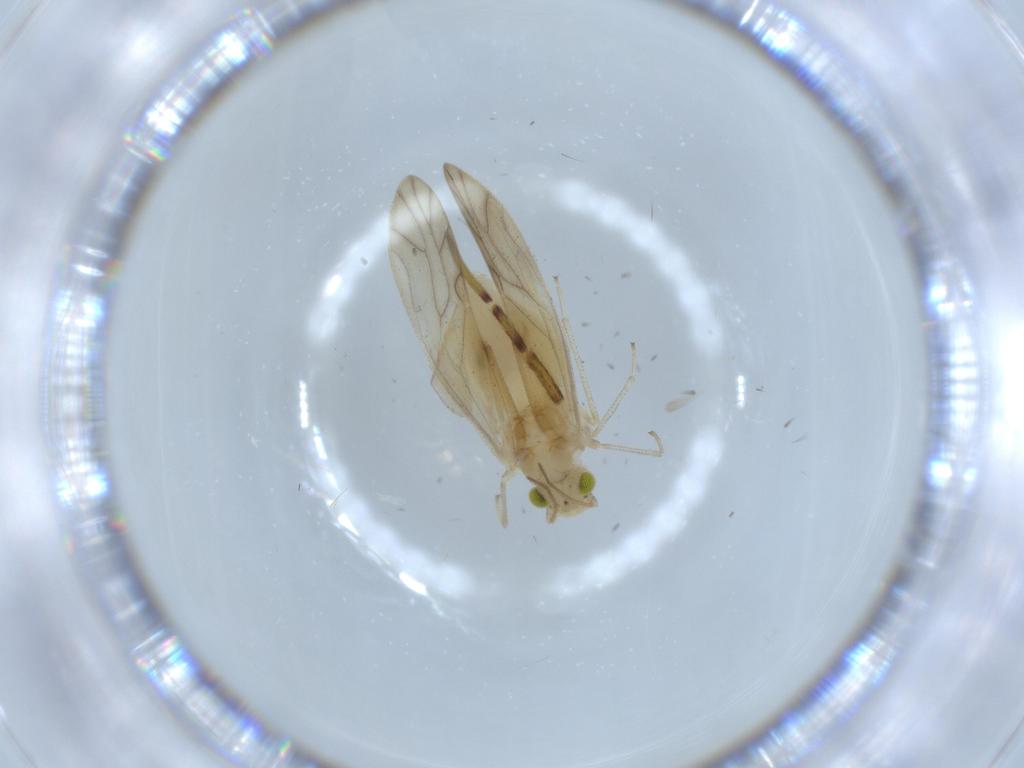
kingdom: Animalia
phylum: Arthropoda
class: Insecta
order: Psocodea
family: Caeciliusidae
